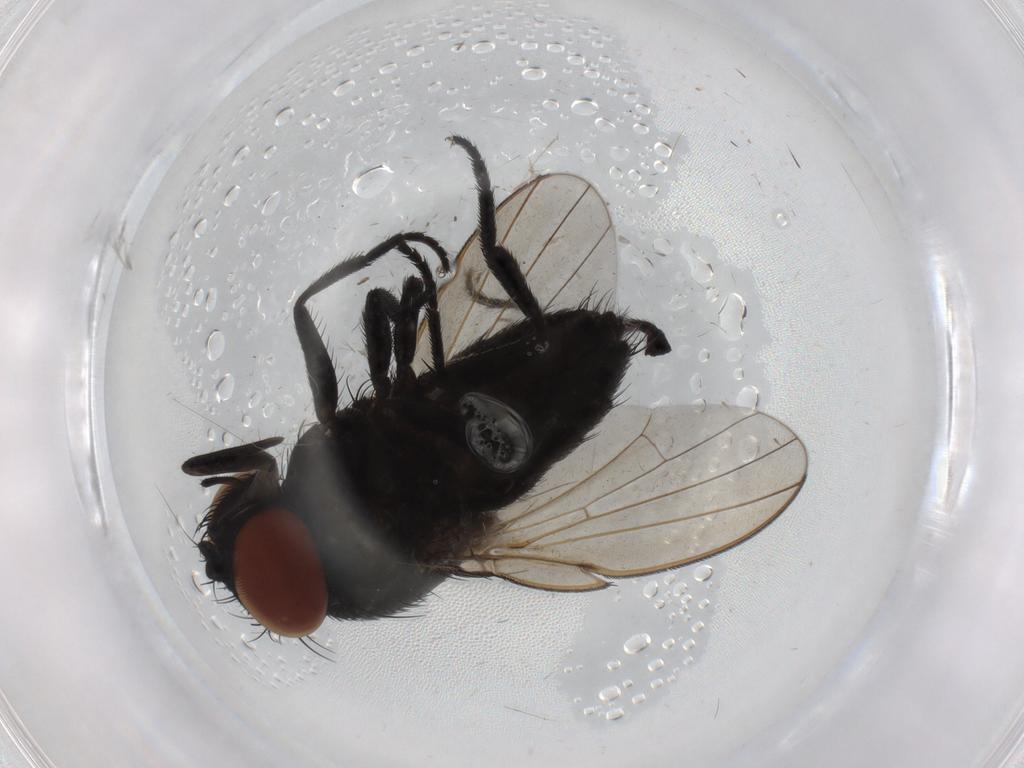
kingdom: Animalia
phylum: Arthropoda
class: Insecta
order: Diptera
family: Milichiidae
